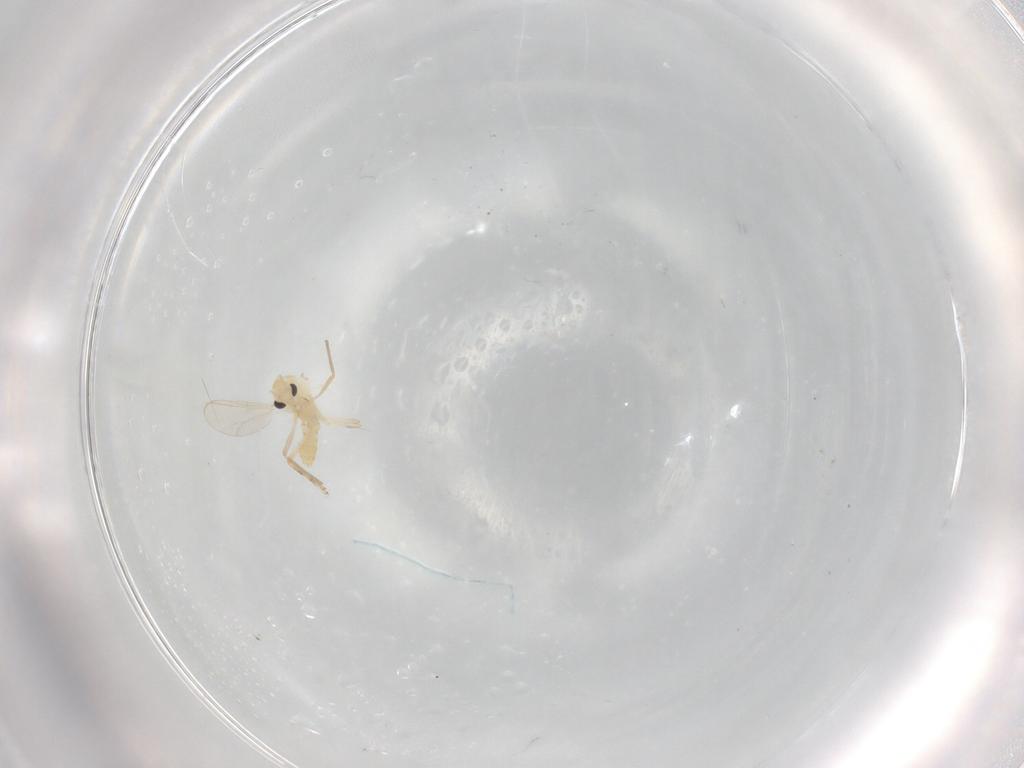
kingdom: Animalia
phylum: Arthropoda
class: Insecta
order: Diptera
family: Chironomidae
